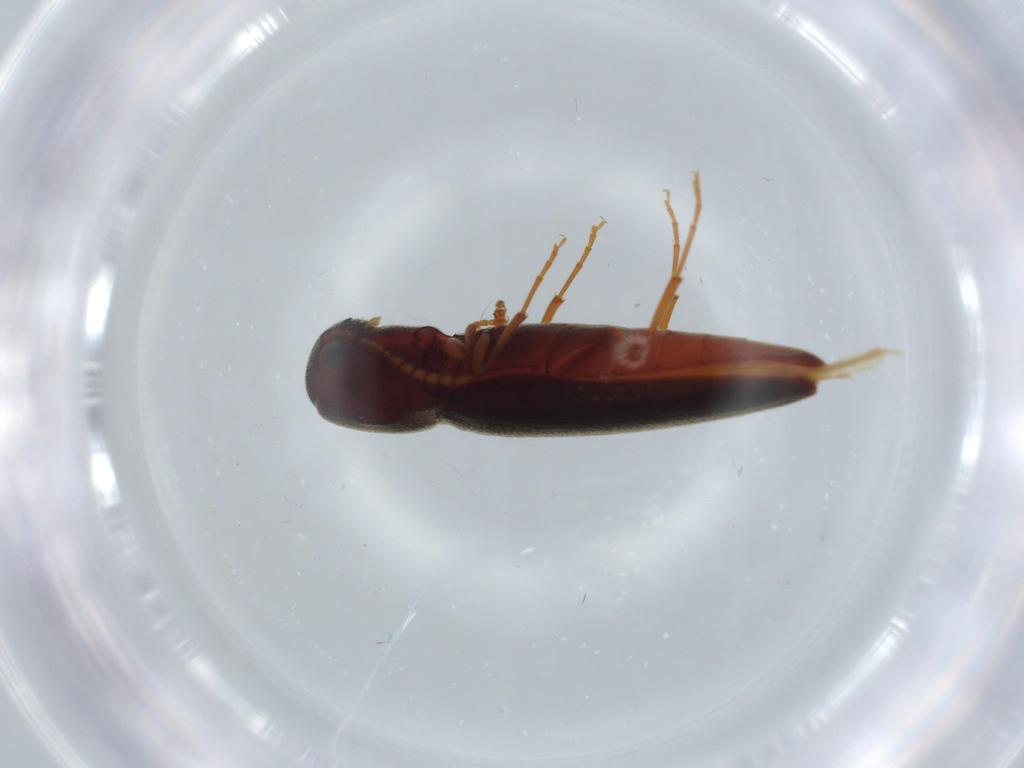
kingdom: Animalia
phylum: Arthropoda
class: Insecta
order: Coleoptera
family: Eucnemidae
